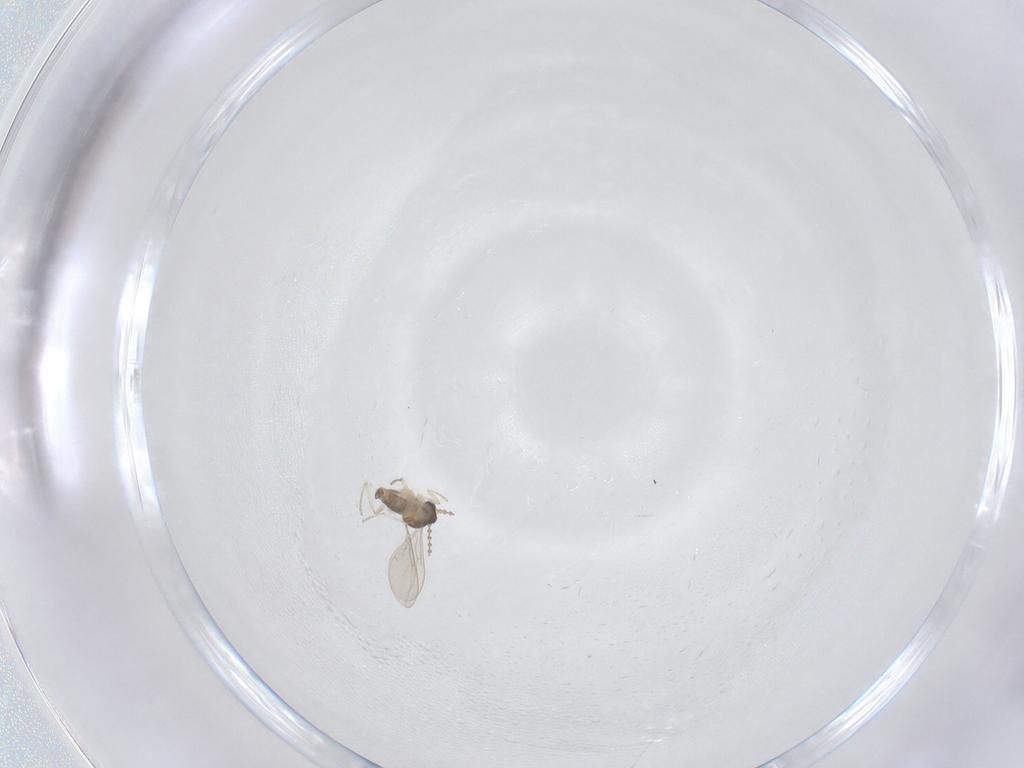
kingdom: Animalia
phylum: Arthropoda
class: Insecta
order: Diptera
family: Cecidomyiidae
